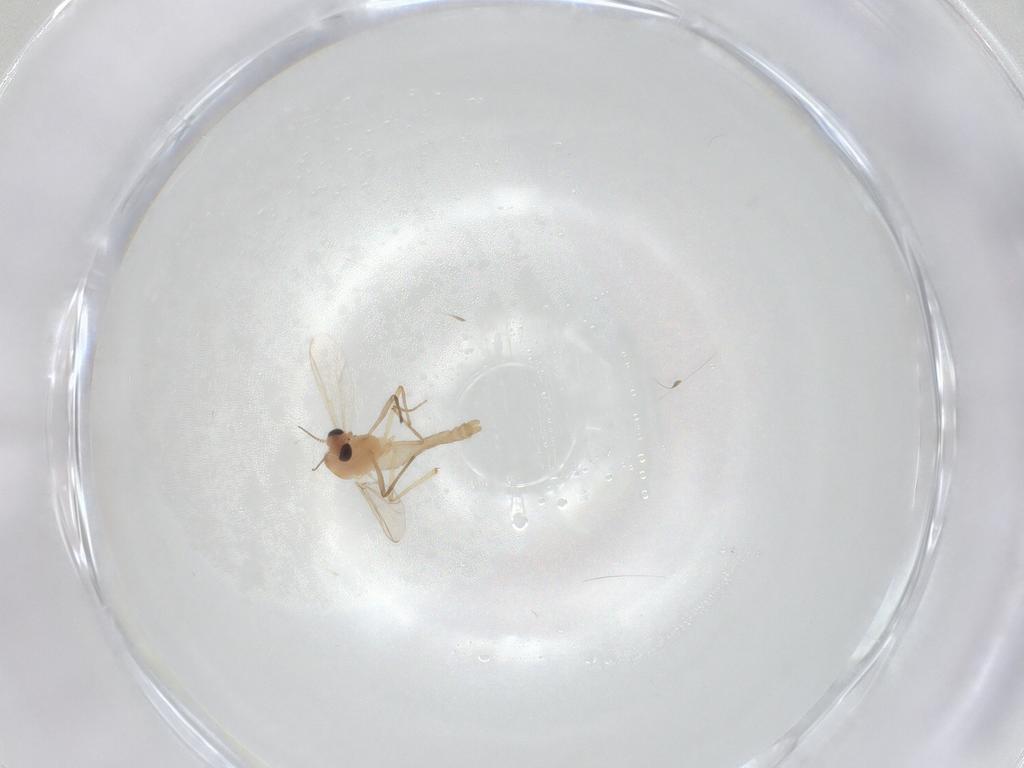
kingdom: Animalia
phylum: Arthropoda
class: Insecta
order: Diptera
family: Chironomidae
